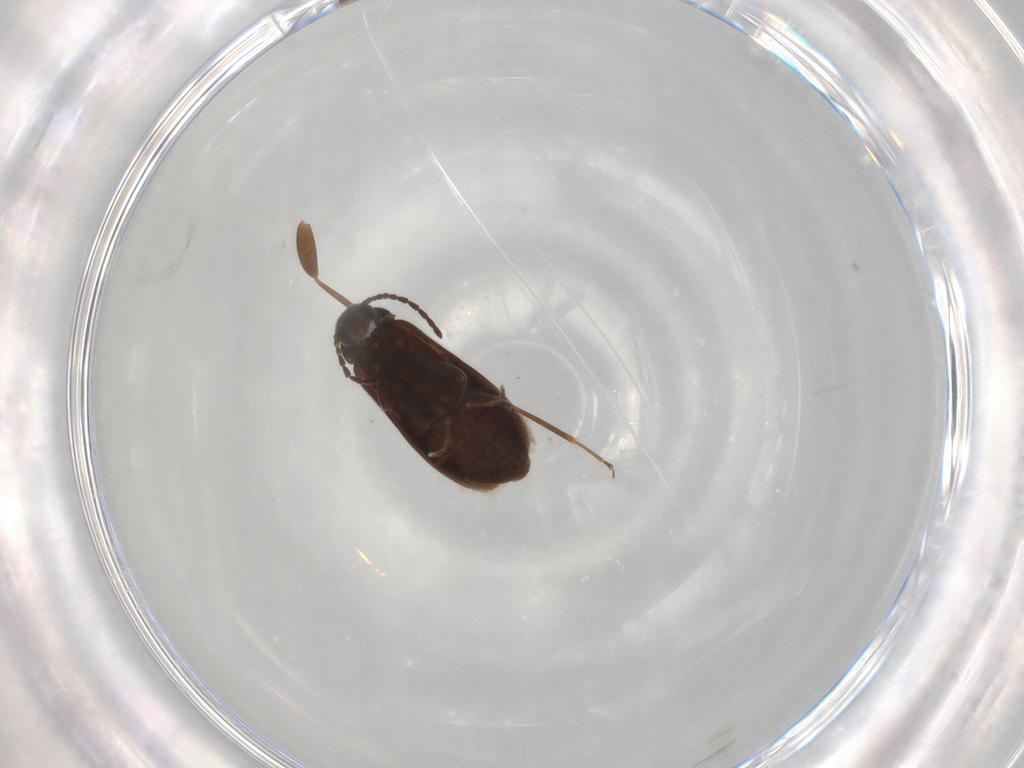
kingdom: Animalia
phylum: Arthropoda
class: Insecta
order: Coleoptera
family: Scraptiidae
